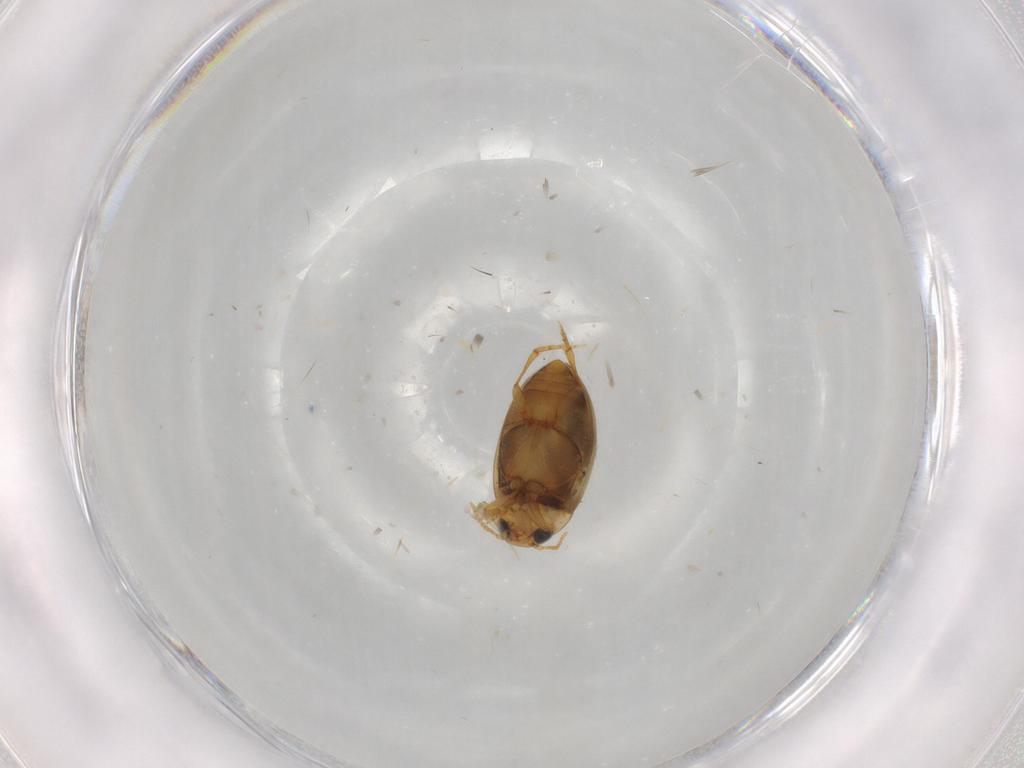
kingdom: Animalia
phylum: Arthropoda
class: Insecta
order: Coleoptera
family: Dytiscidae
